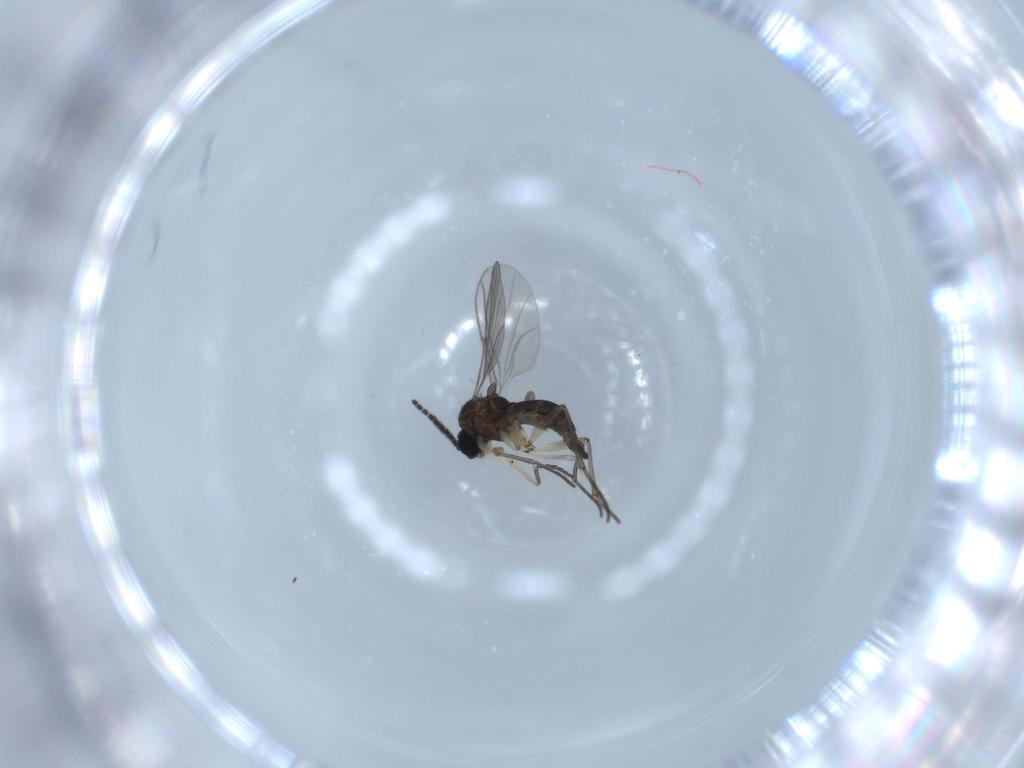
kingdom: Animalia
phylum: Arthropoda
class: Insecta
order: Diptera
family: Sciaridae
